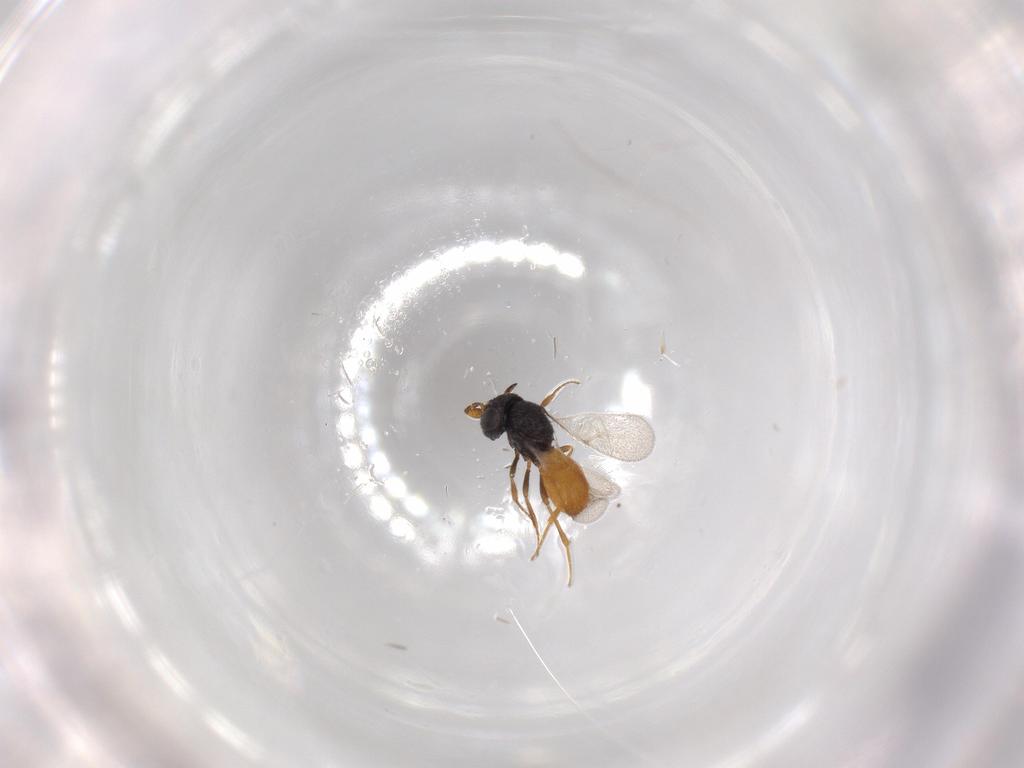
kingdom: Animalia
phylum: Arthropoda
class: Insecta
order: Hymenoptera
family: Scelionidae
